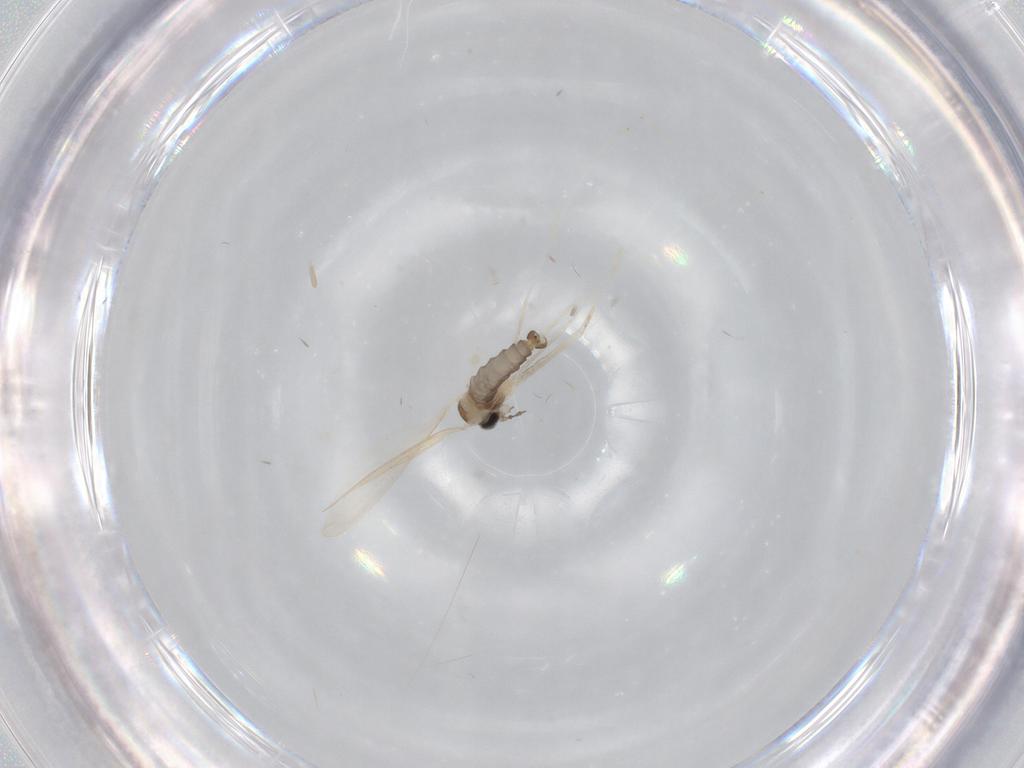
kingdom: Animalia
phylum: Arthropoda
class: Insecta
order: Diptera
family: Cecidomyiidae
